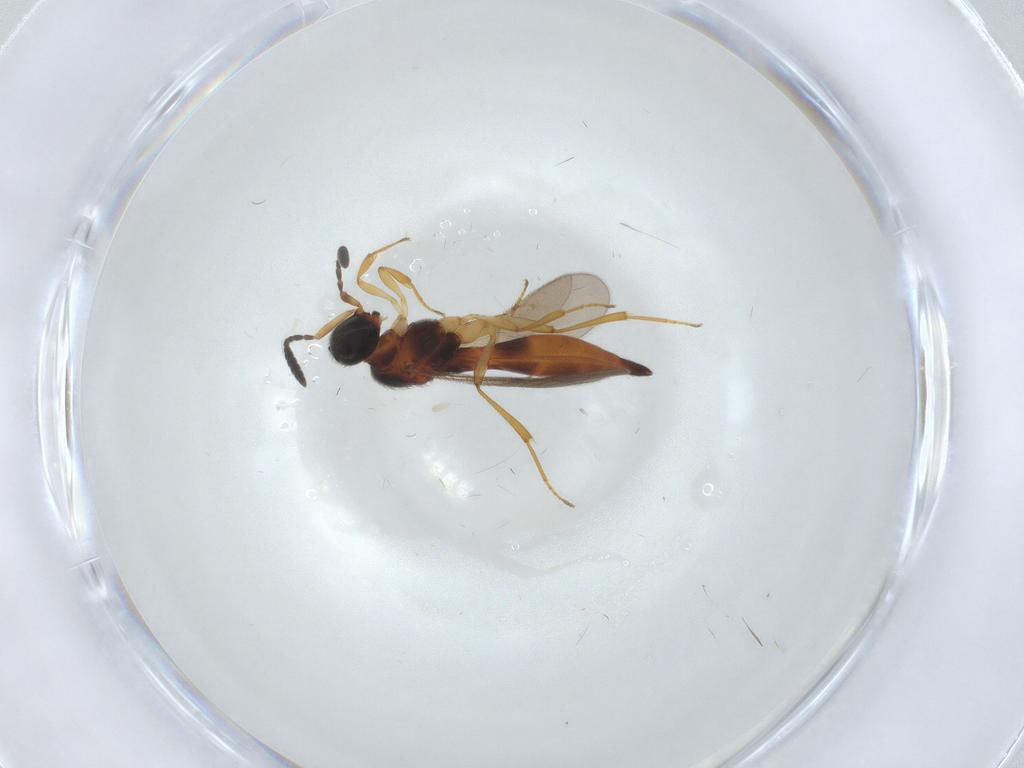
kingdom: Animalia
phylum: Arthropoda
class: Insecta
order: Hymenoptera
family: Scelionidae
